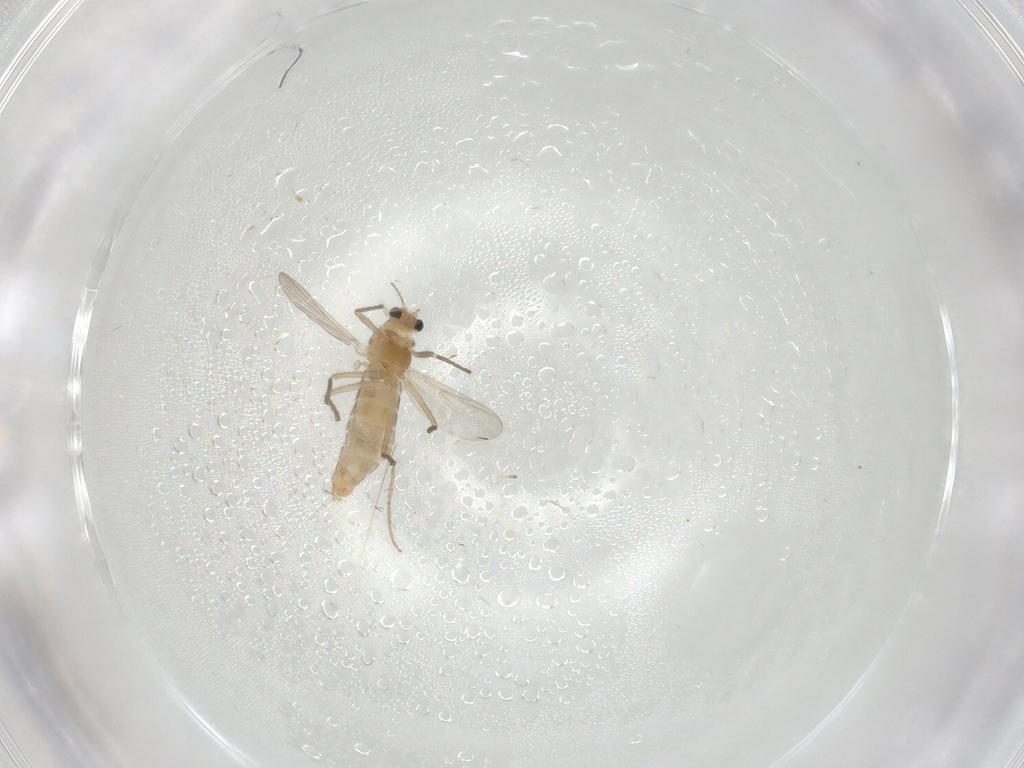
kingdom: Animalia
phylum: Arthropoda
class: Insecta
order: Diptera
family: Chironomidae
